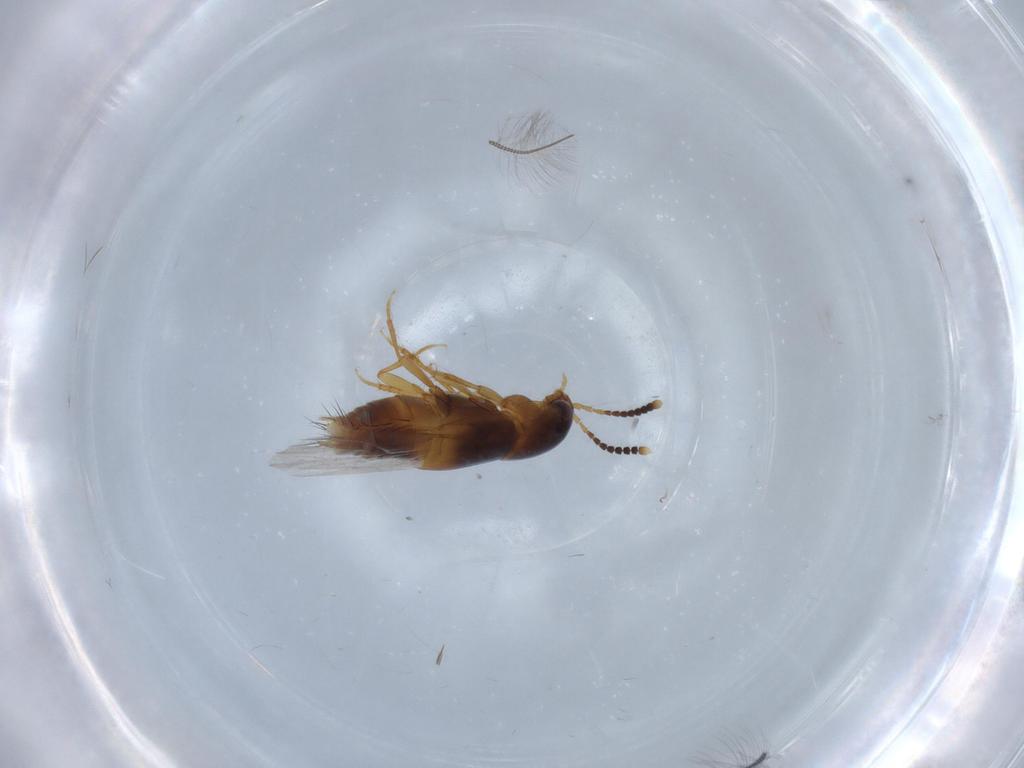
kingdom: Animalia
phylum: Arthropoda
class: Insecta
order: Coleoptera
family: Staphylinidae
